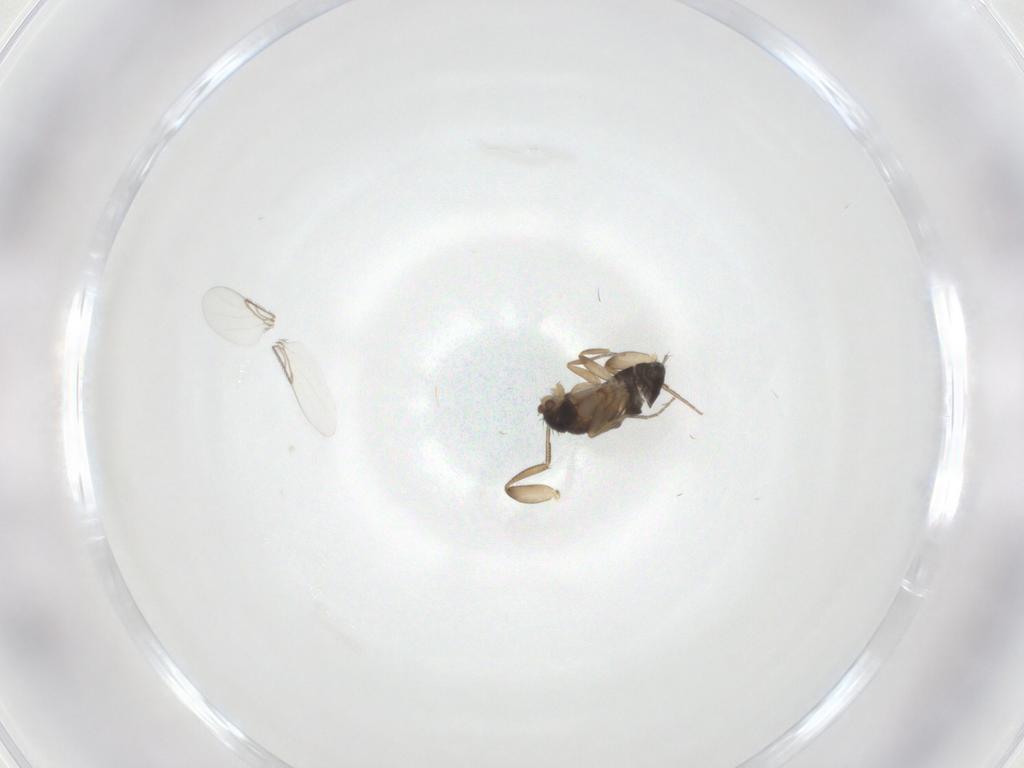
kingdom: Animalia
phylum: Arthropoda
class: Insecta
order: Diptera
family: Phoridae
